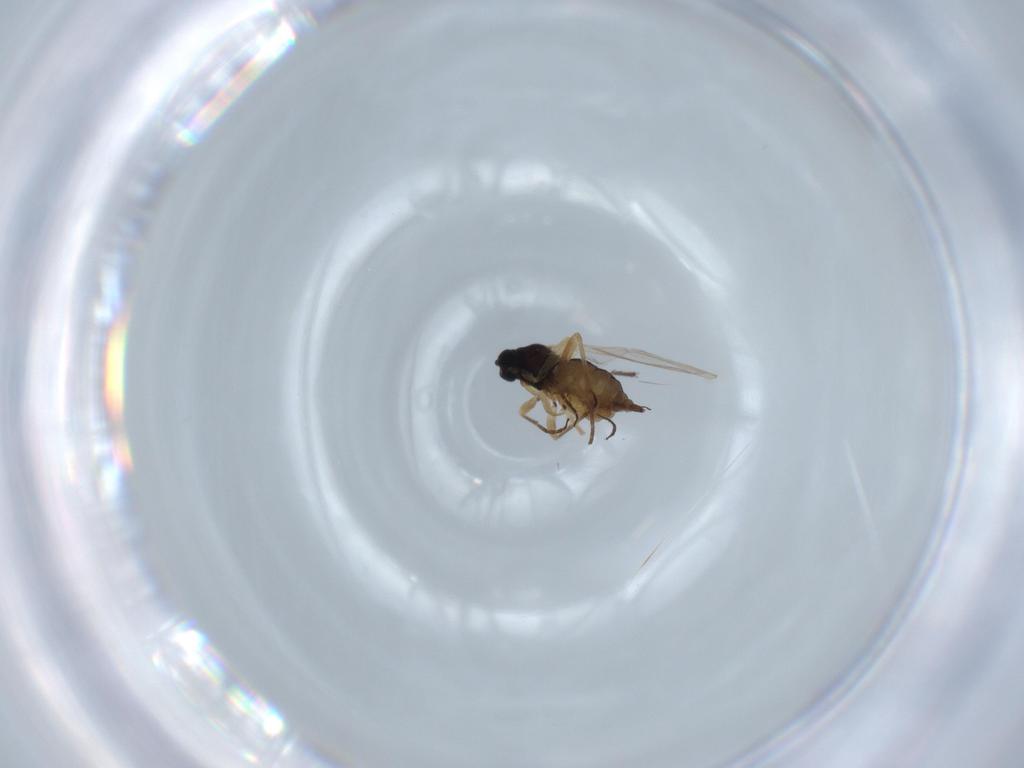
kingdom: Animalia
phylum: Arthropoda
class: Insecta
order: Diptera
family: Sciaridae
